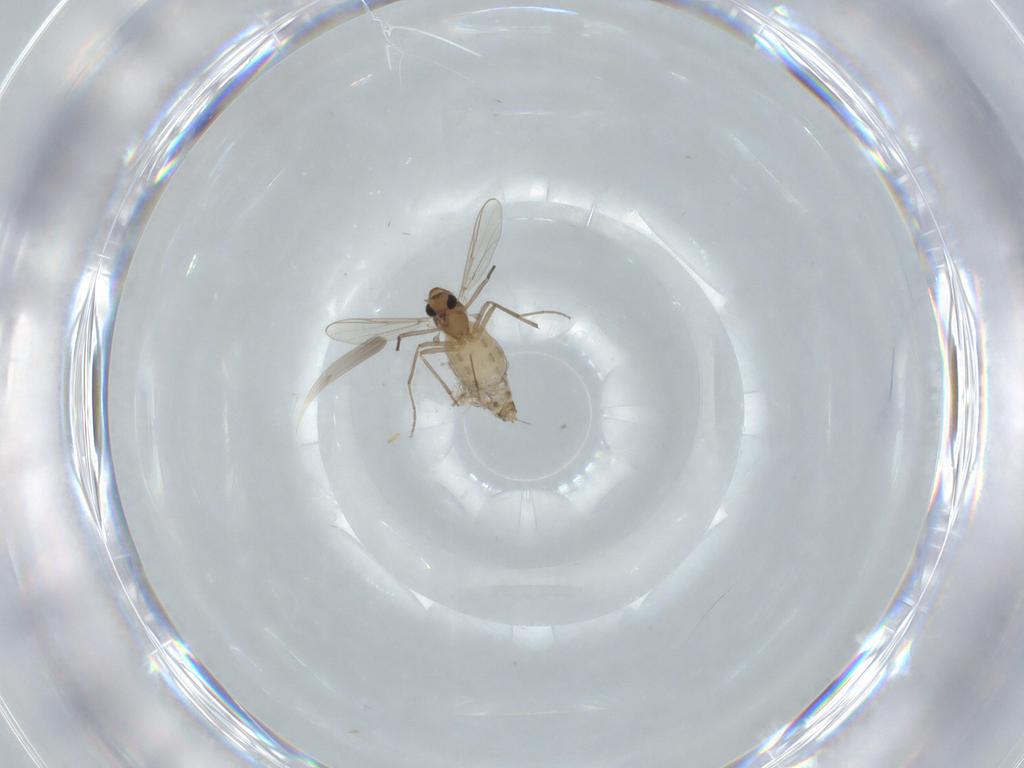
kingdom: Animalia
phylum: Arthropoda
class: Insecta
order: Diptera
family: Chironomidae
